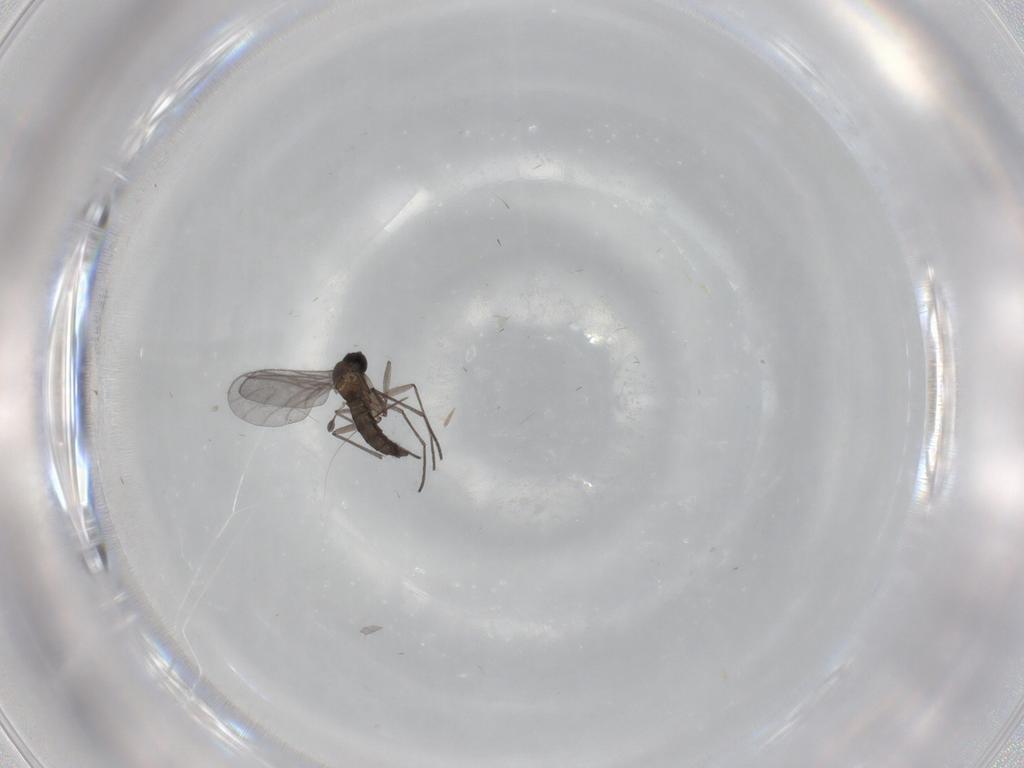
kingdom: Animalia
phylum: Arthropoda
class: Insecta
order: Diptera
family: Sciaridae
